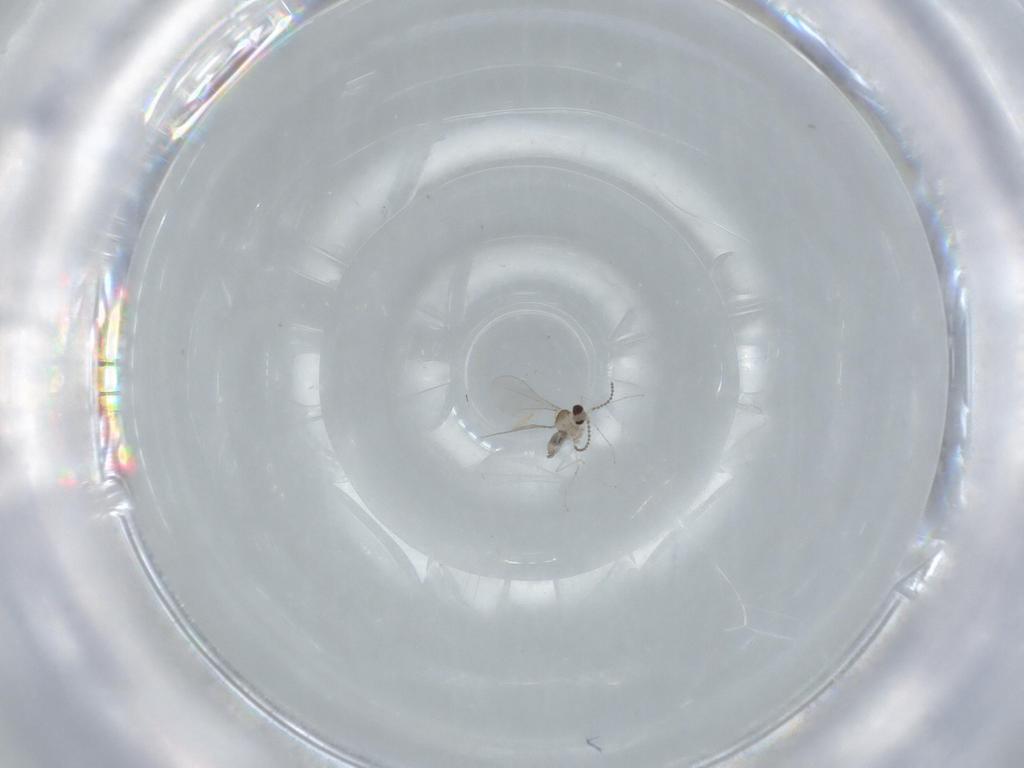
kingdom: Animalia
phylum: Arthropoda
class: Insecta
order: Diptera
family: Cecidomyiidae
